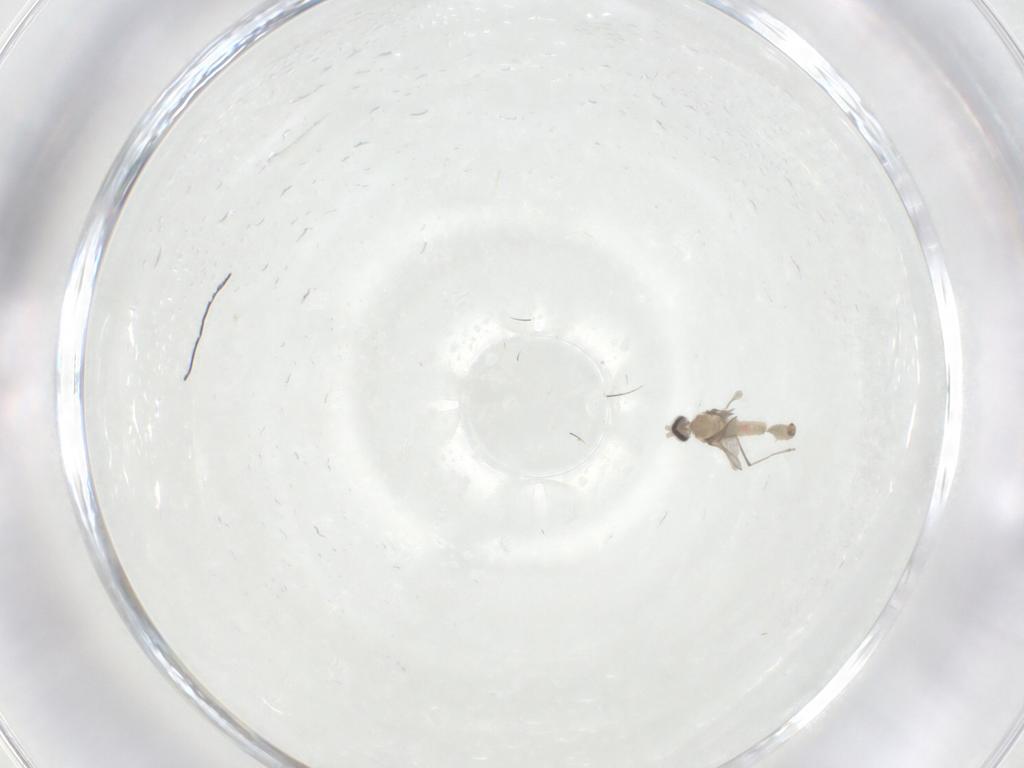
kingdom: Animalia
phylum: Arthropoda
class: Insecta
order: Diptera
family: Cecidomyiidae
